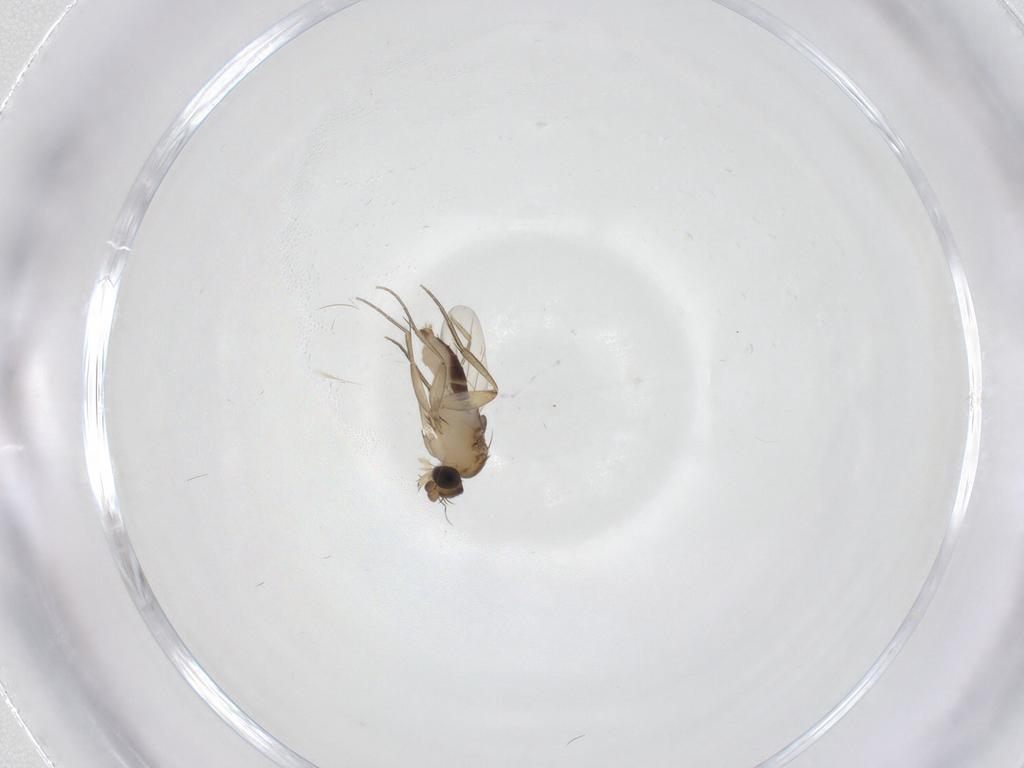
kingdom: Animalia
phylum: Arthropoda
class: Insecta
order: Diptera
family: Phoridae
